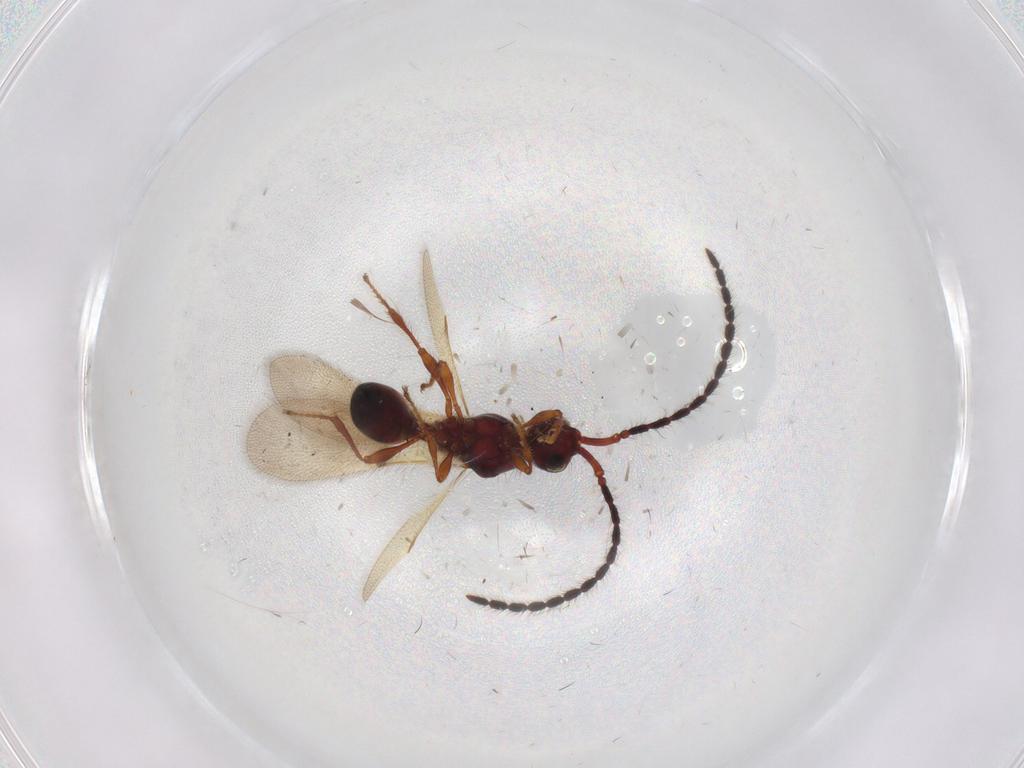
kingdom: Animalia
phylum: Arthropoda
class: Insecta
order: Hymenoptera
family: Diapriidae
